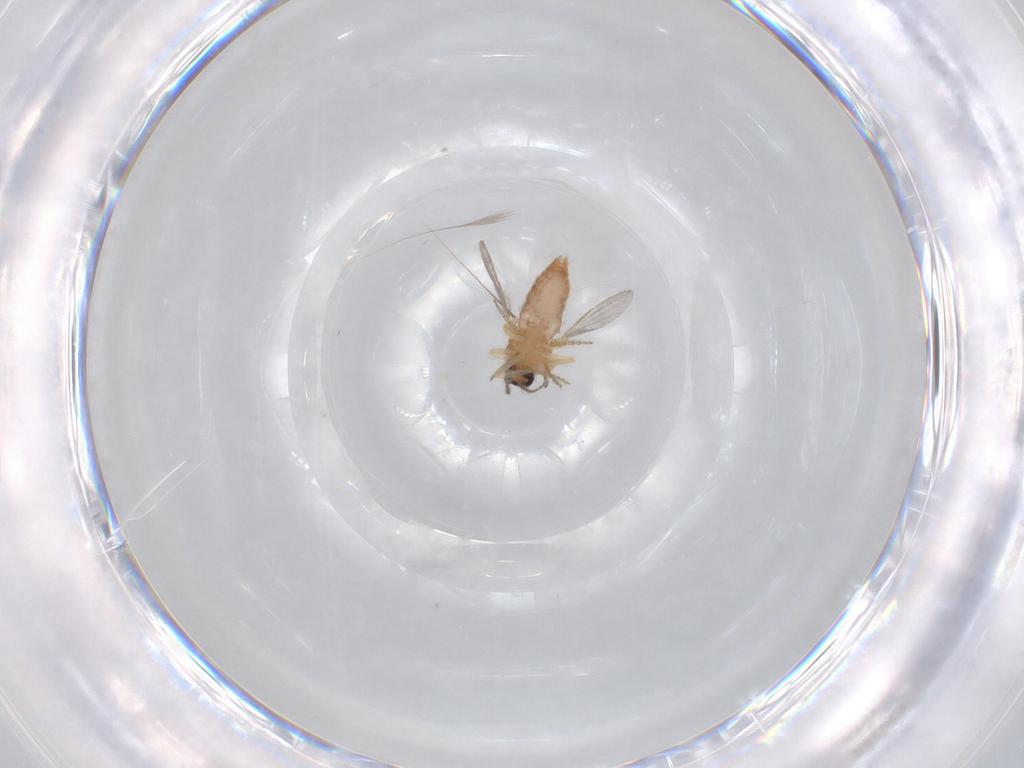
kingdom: Animalia
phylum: Arthropoda
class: Insecta
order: Diptera
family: Ceratopogonidae
